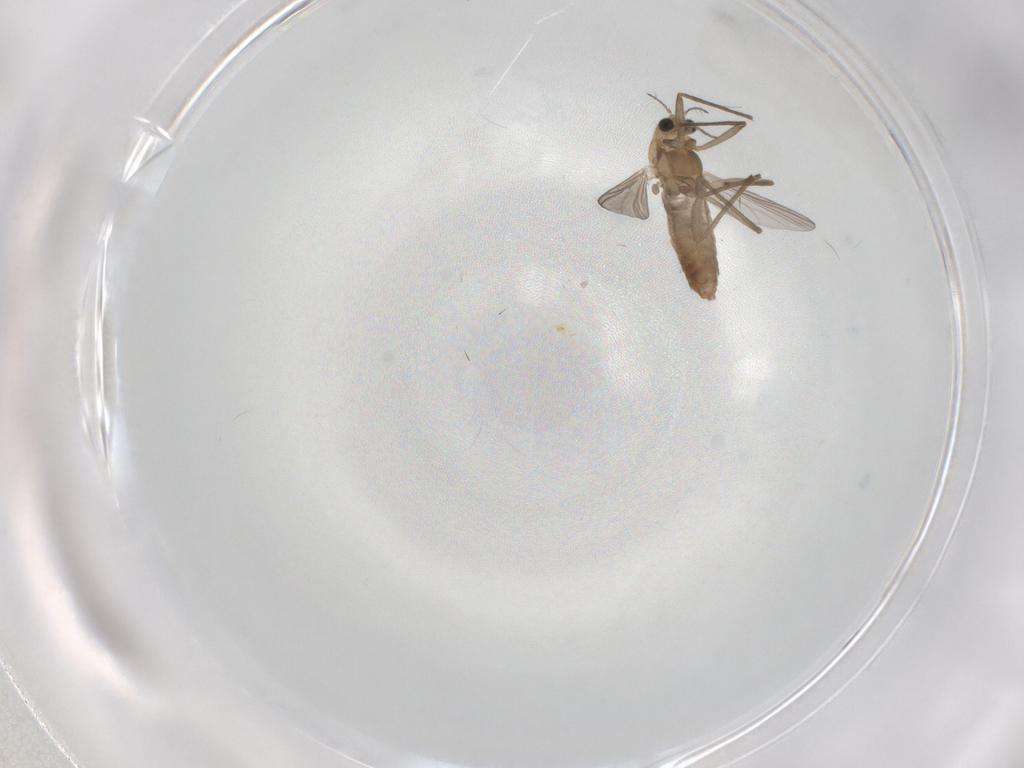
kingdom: Animalia
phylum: Arthropoda
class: Insecta
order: Diptera
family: Chironomidae
